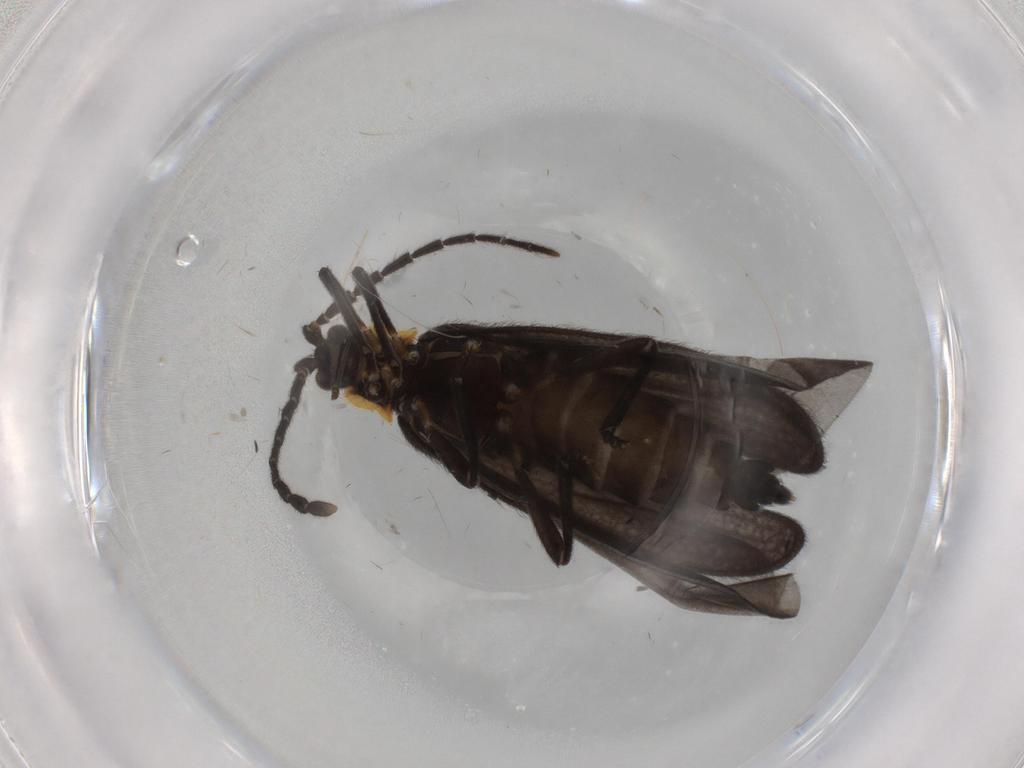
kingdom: Animalia
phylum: Arthropoda
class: Insecta
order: Coleoptera
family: Lycidae
